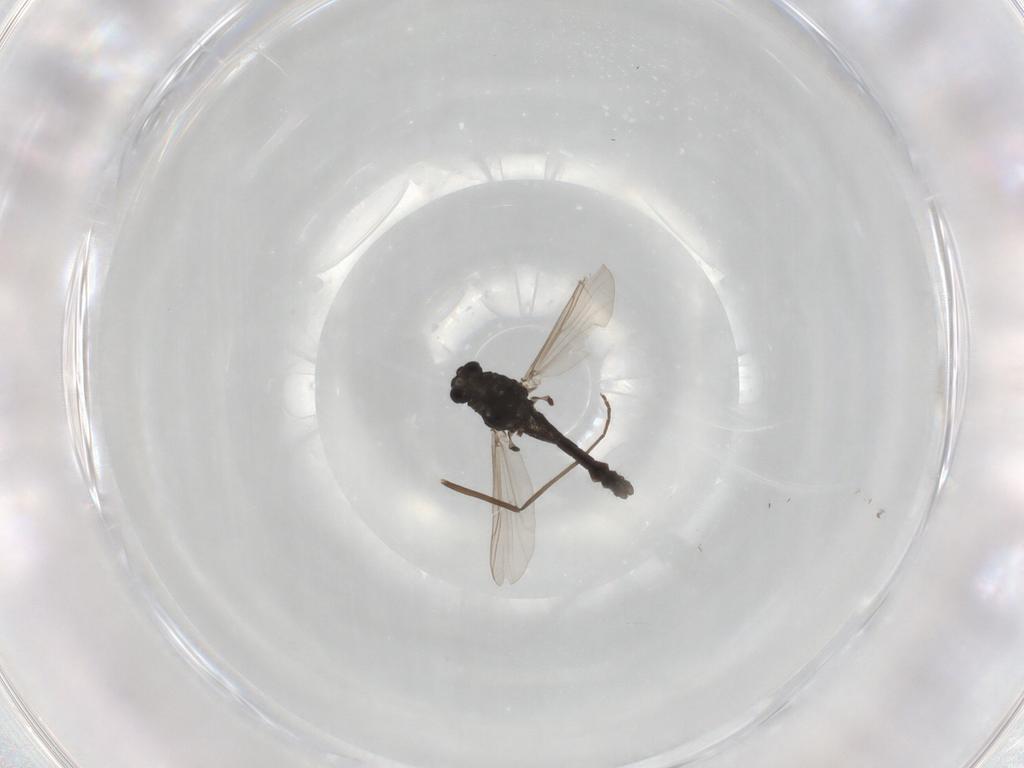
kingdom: Animalia
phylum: Arthropoda
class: Insecta
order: Diptera
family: Chironomidae
